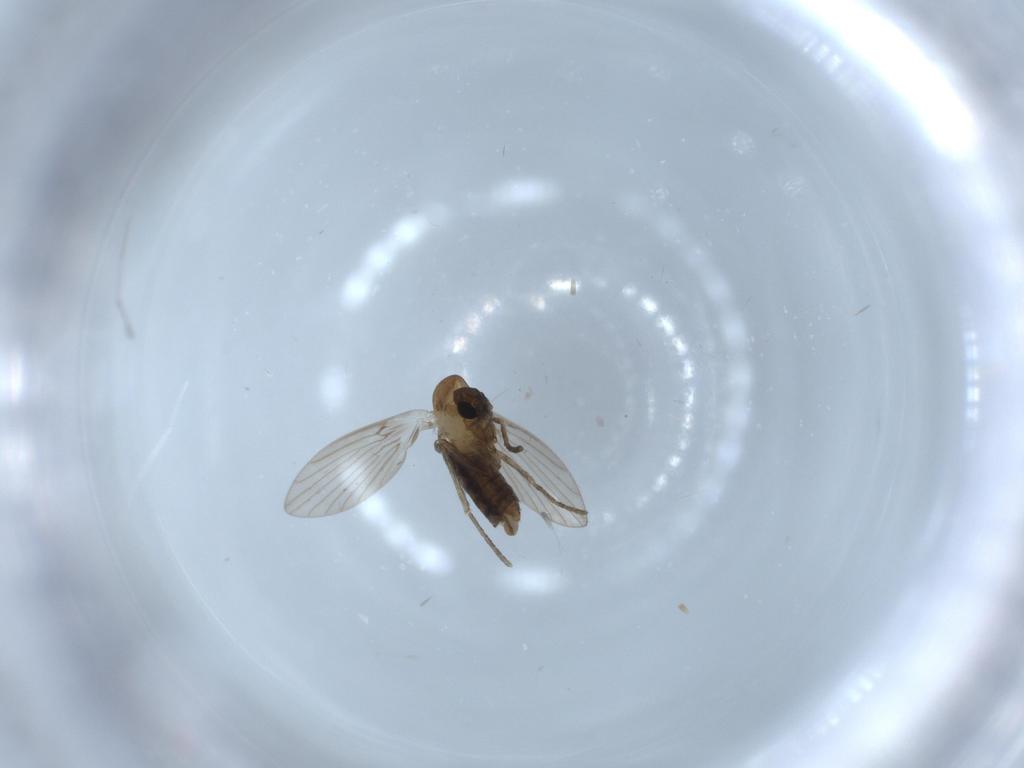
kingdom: Animalia
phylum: Arthropoda
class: Insecta
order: Diptera
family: Psychodidae
